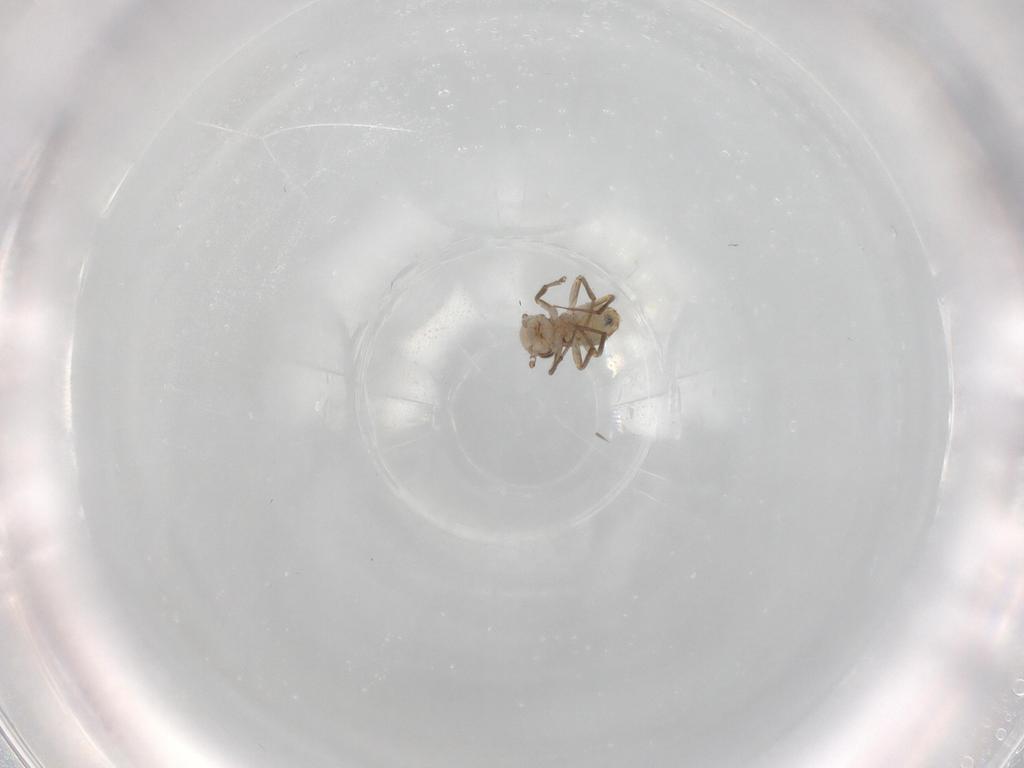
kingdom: Animalia
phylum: Arthropoda
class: Insecta
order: Psocodea
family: Mesopsocidae
